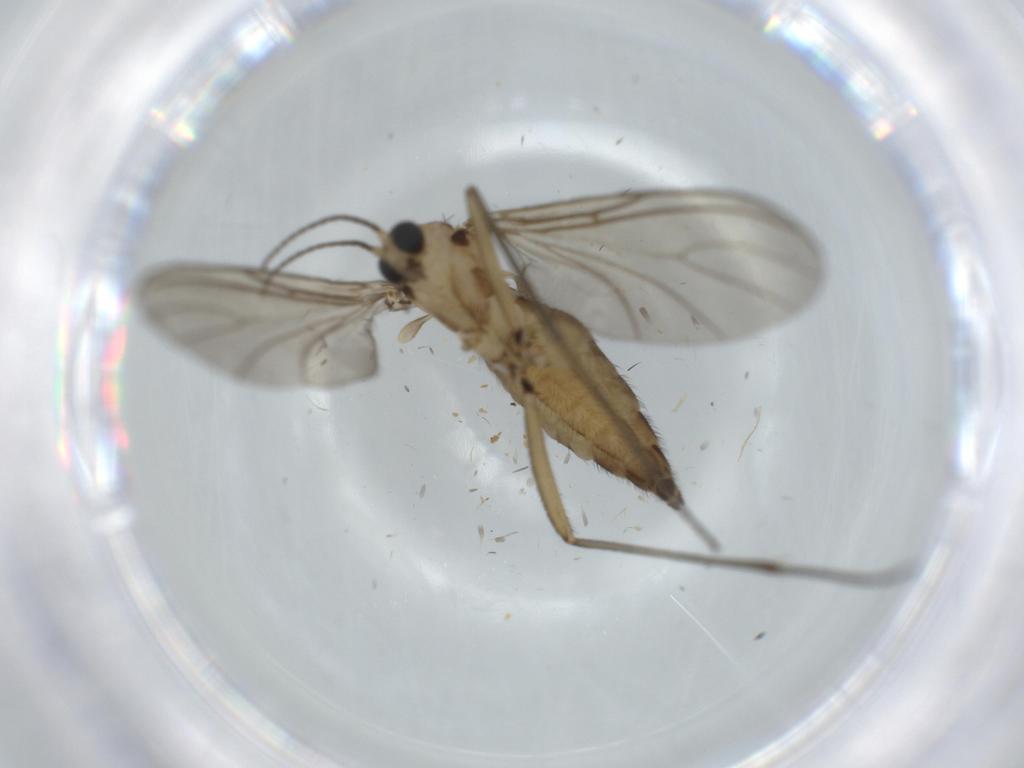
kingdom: Animalia
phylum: Arthropoda
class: Insecta
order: Diptera
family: Sciaridae
